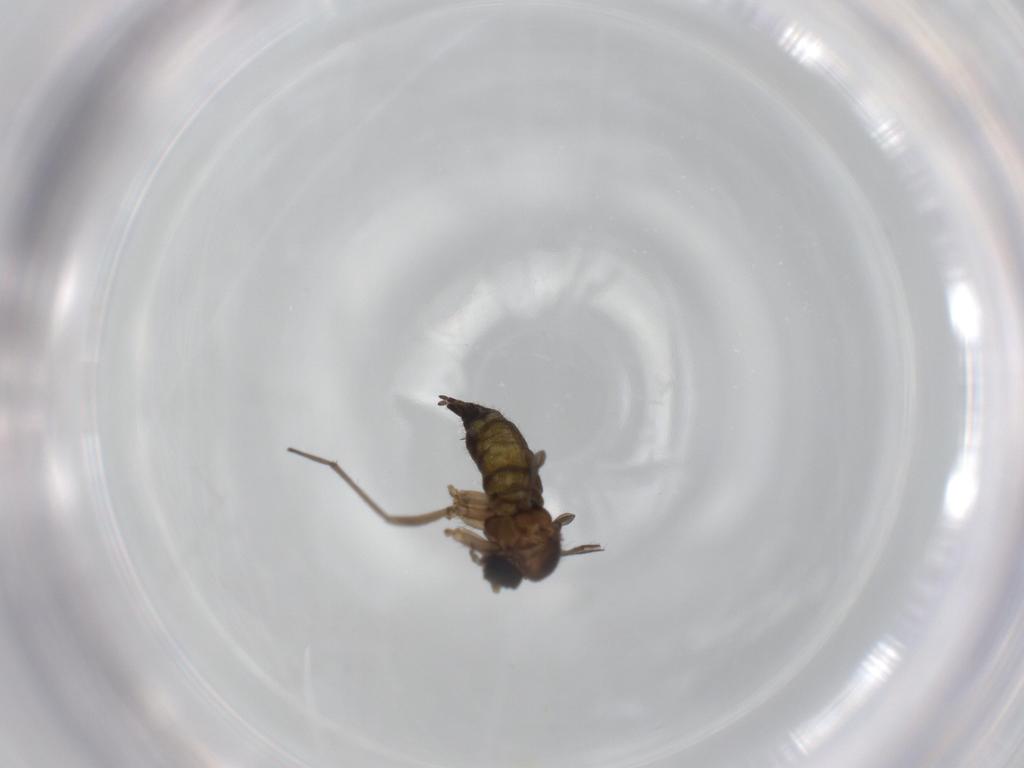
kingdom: Animalia
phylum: Arthropoda
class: Insecta
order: Diptera
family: Sciaridae
